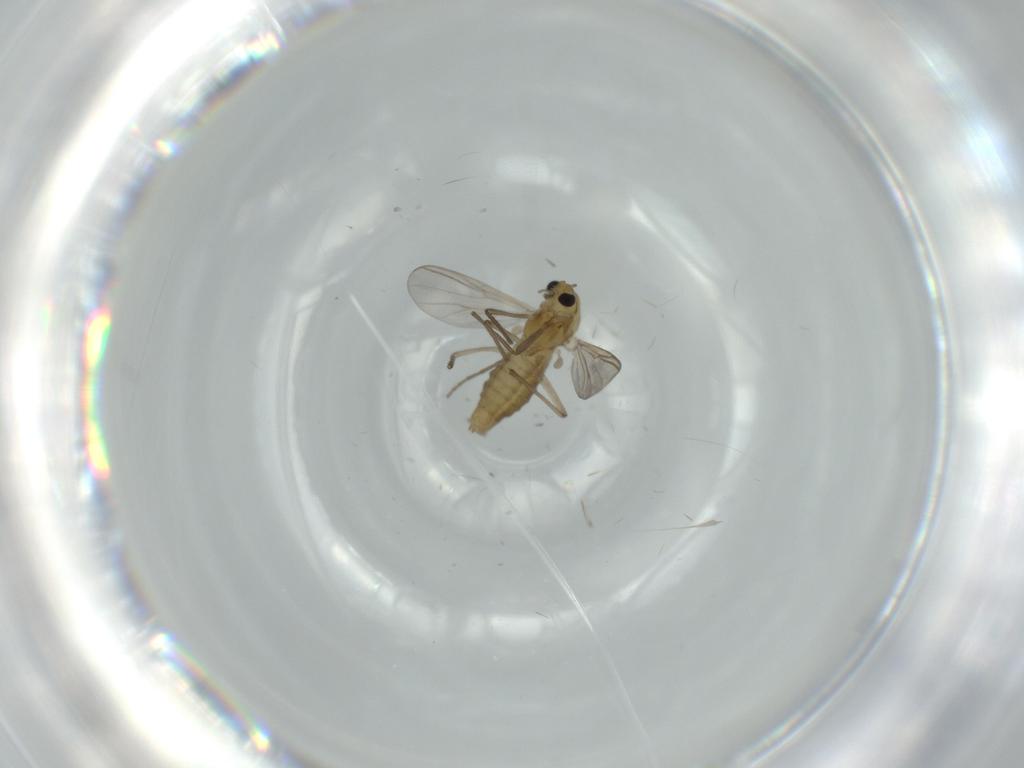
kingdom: Animalia
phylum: Arthropoda
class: Insecta
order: Diptera
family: Chironomidae
